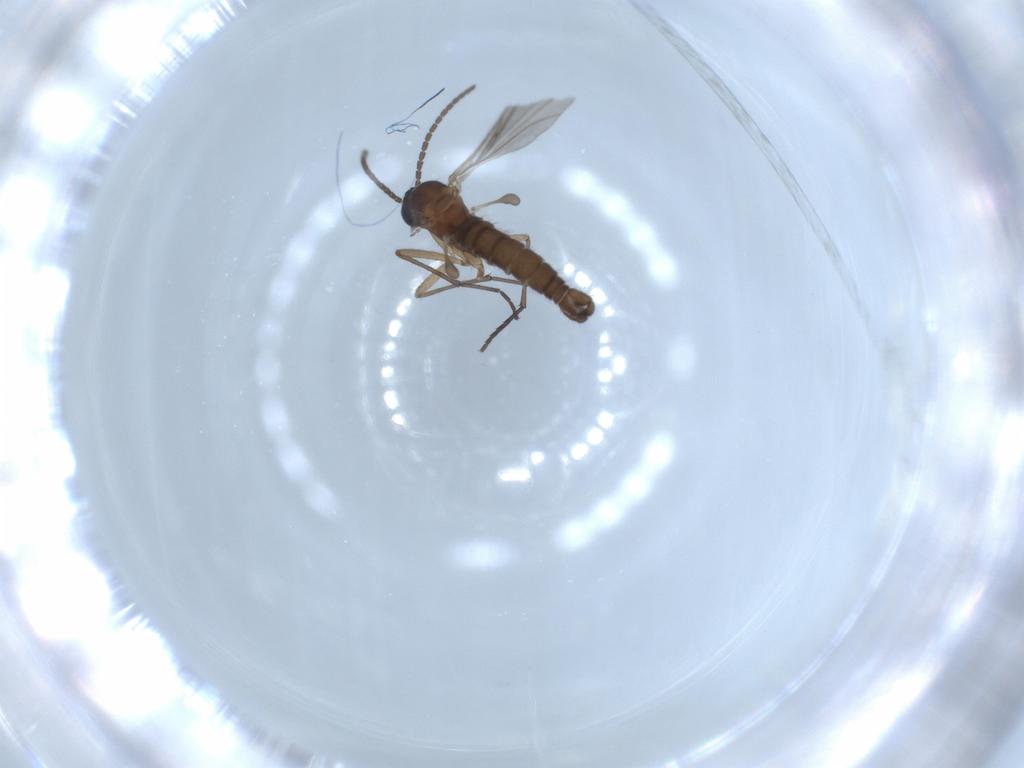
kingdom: Animalia
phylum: Arthropoda
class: Insecta
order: Diptera
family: Sciaridae
